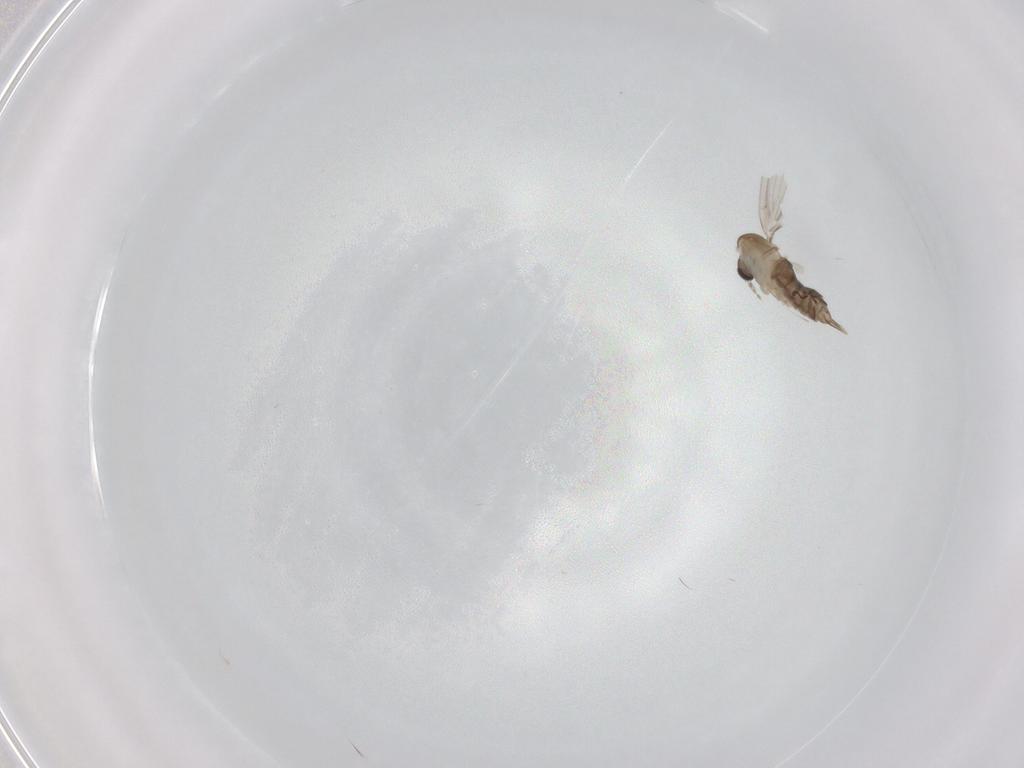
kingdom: Animalia
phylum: Arthropoda
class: Insecta
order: Diptera
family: Psychodidae
